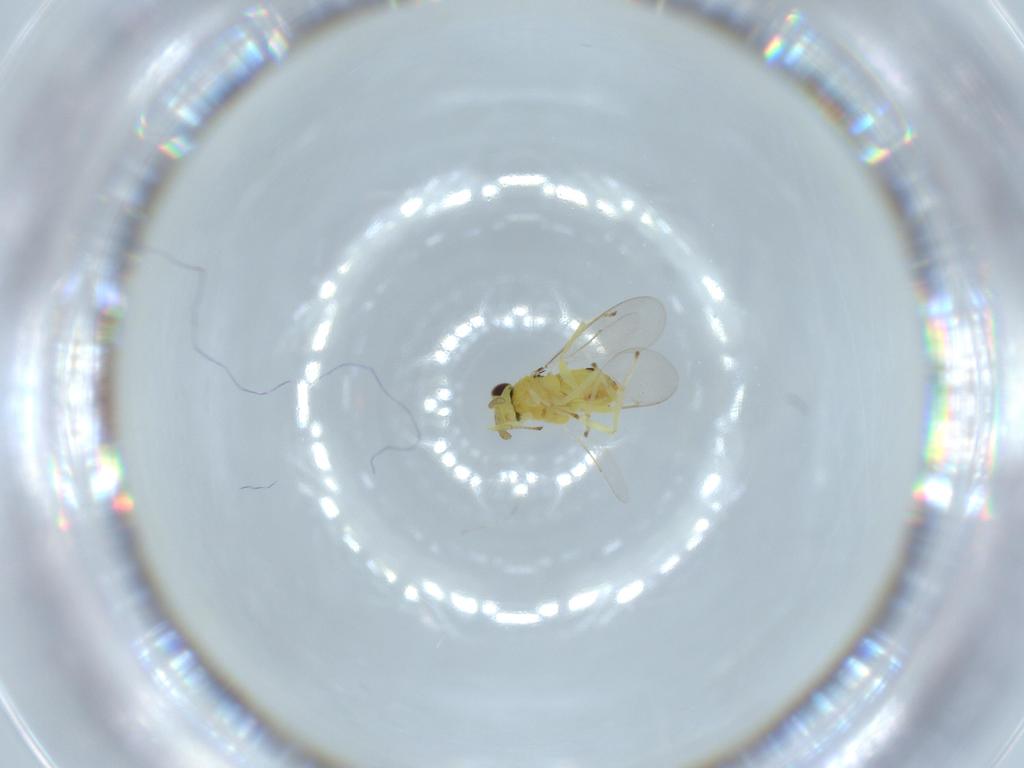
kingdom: Animalia
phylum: Arthropoda
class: Insecta
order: Hymenoptera
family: Aphelinidae
